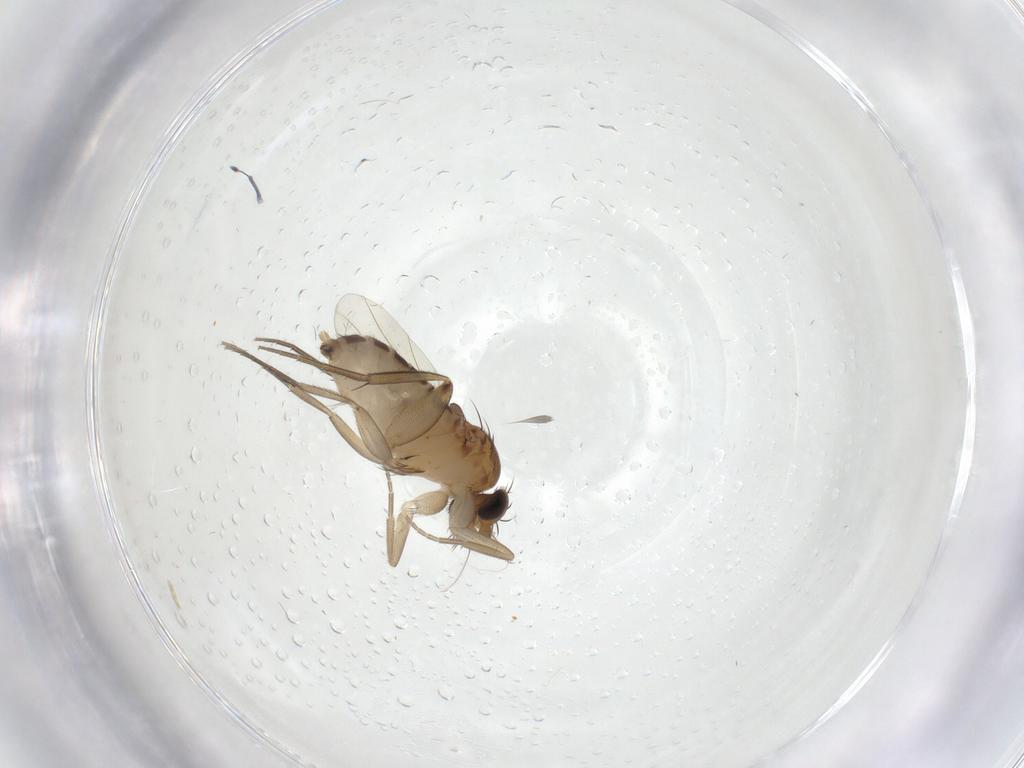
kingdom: Animalia
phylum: Arthropoda
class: Insecta
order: Diptera
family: Phoridae
